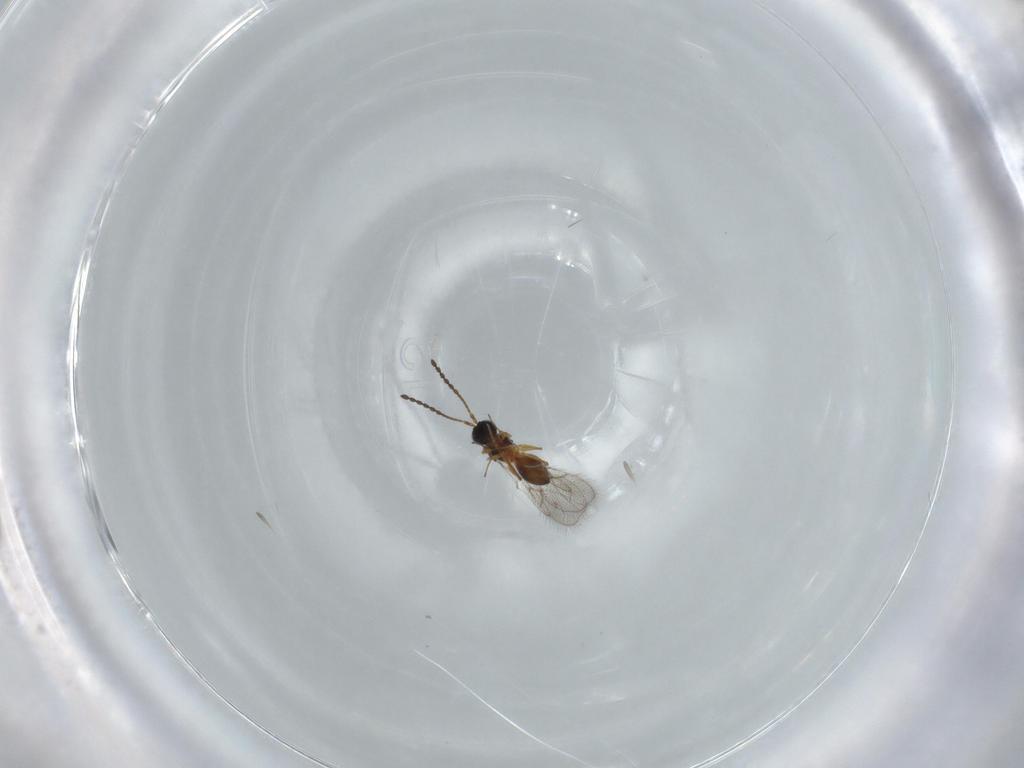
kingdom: Animalia
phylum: Arthropoda
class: Insecta
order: Hymenoptera
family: Figitidae
